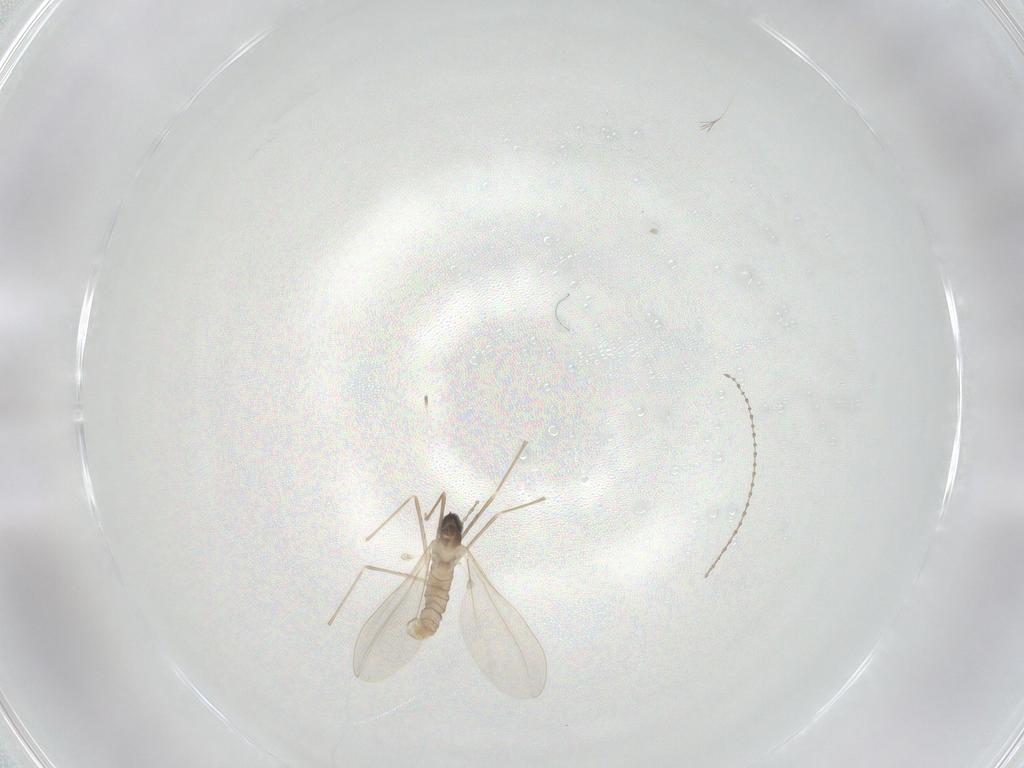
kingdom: Animalia
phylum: Arthropoda
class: Insecta
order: Diptera
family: Cecidomyiidae
